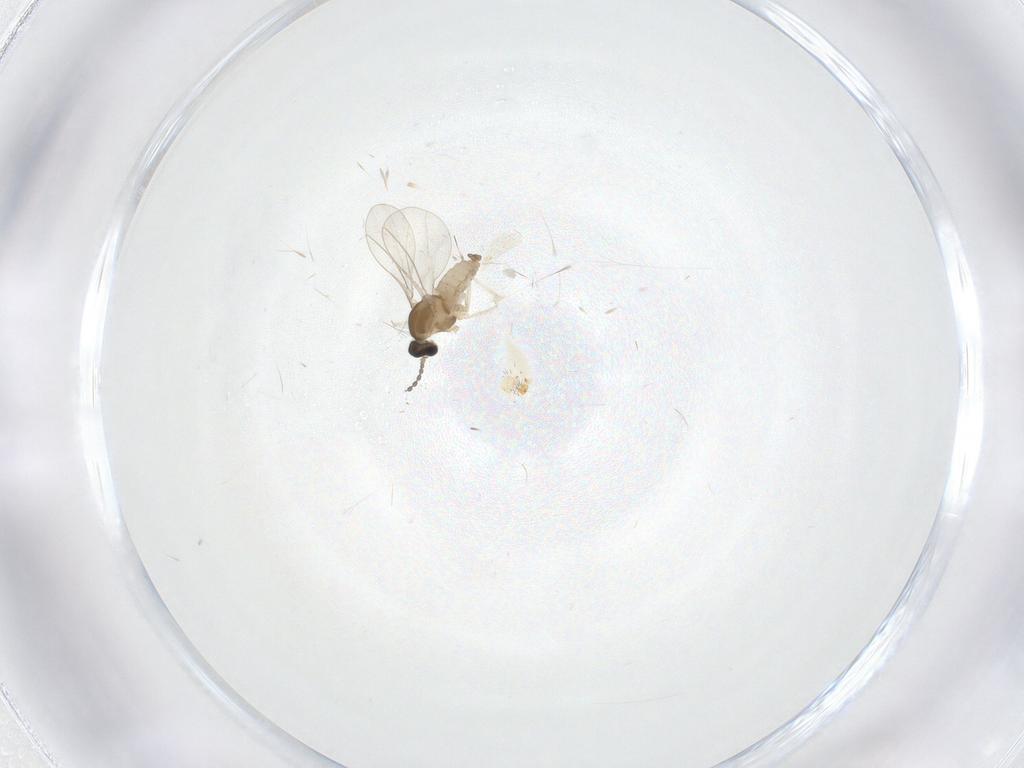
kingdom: Animalia
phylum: Arthropoda
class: Insecta
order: Diptera
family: Cecidomyiidae
